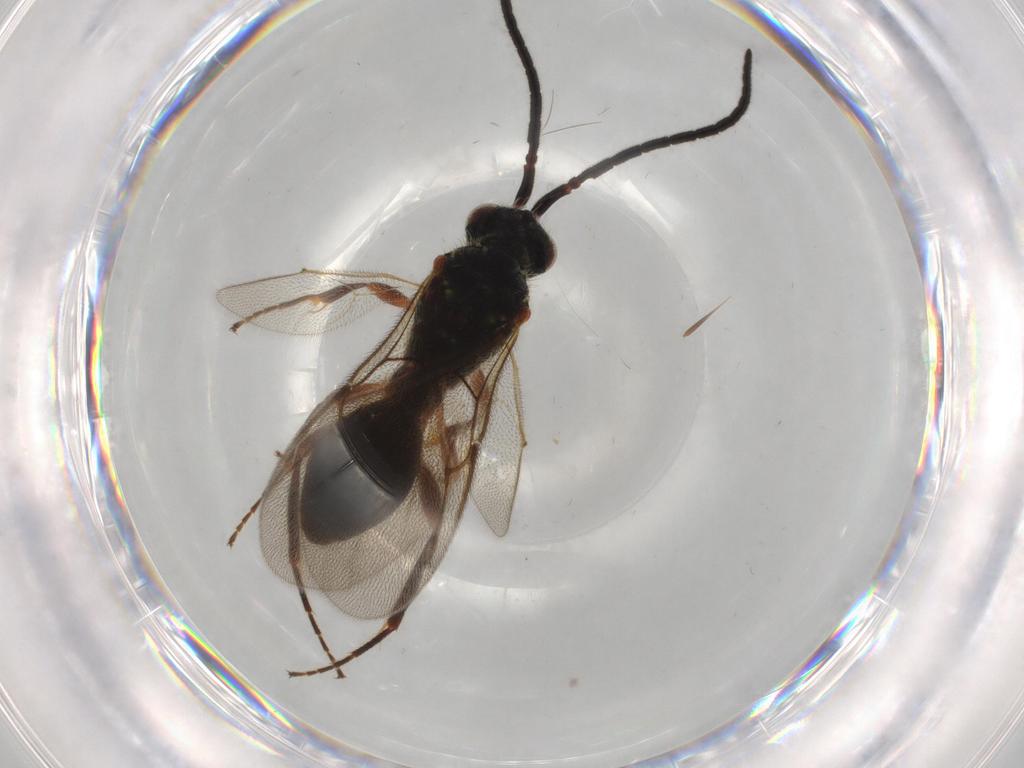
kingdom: Animalia
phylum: Arthropoda
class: Insecta
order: Hymenoptera
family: Diapriidae
